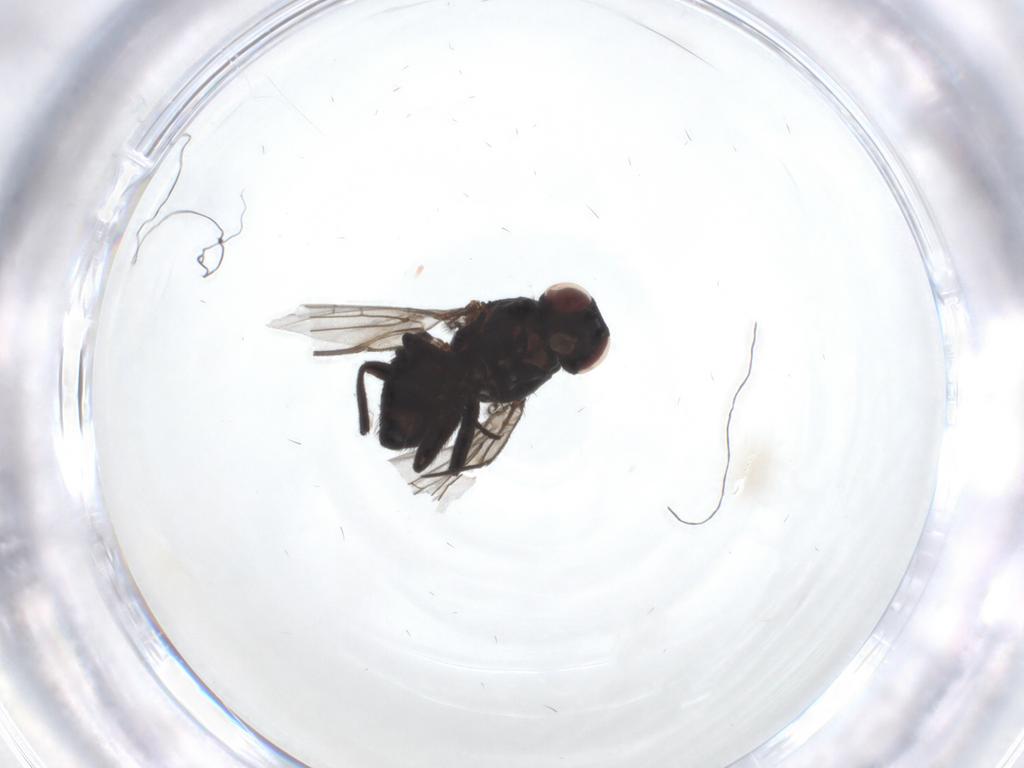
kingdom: Animalia
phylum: Arthropoda
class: Insecta
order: Diptera
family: Agromyzidae
